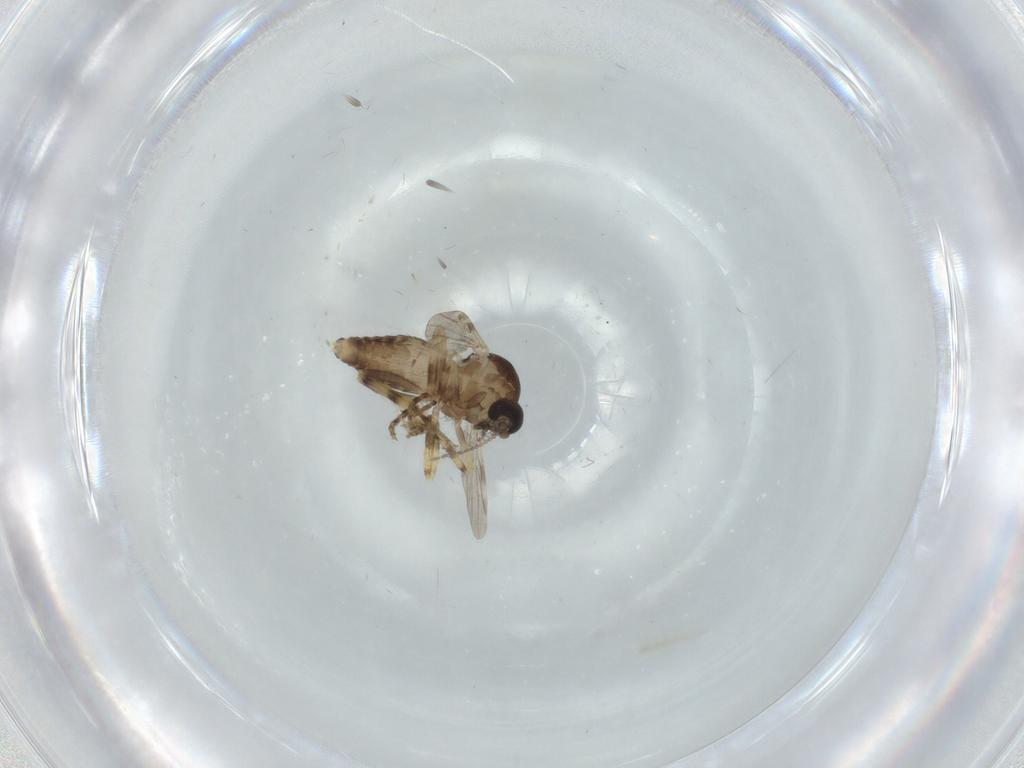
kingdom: Animalia
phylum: Arthropoda
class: Insecta
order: Diptera
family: Ceratopogonidae
